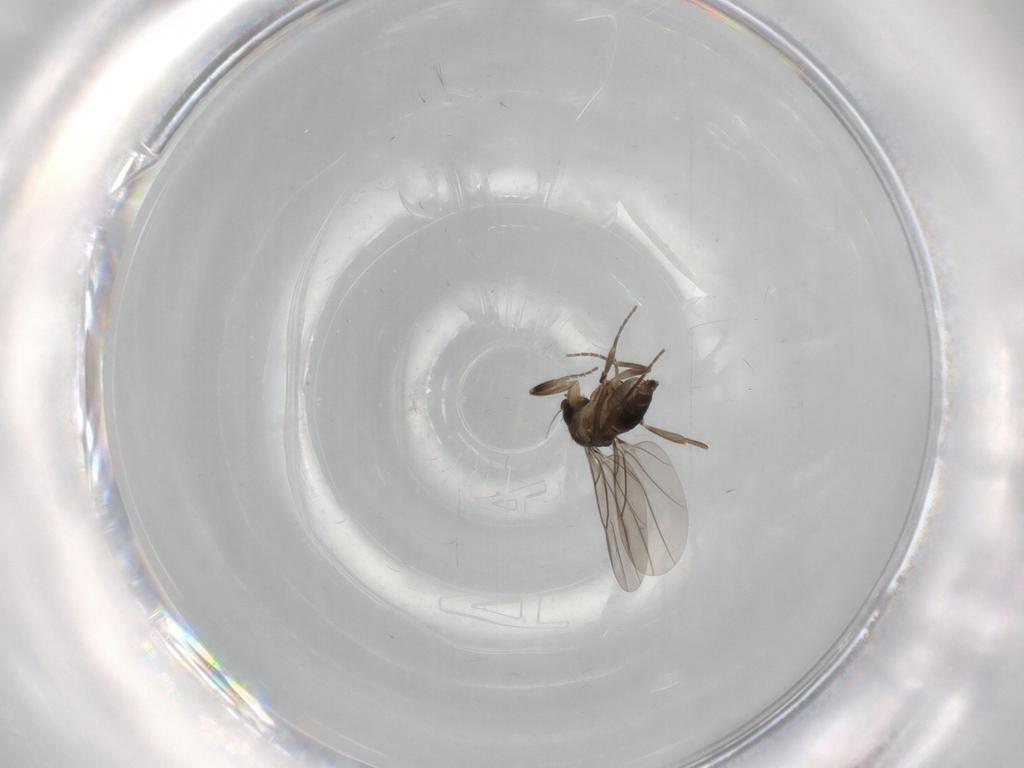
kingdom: Animalia
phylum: Arthropoda
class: Insecta
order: Diptera
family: Phoridae
